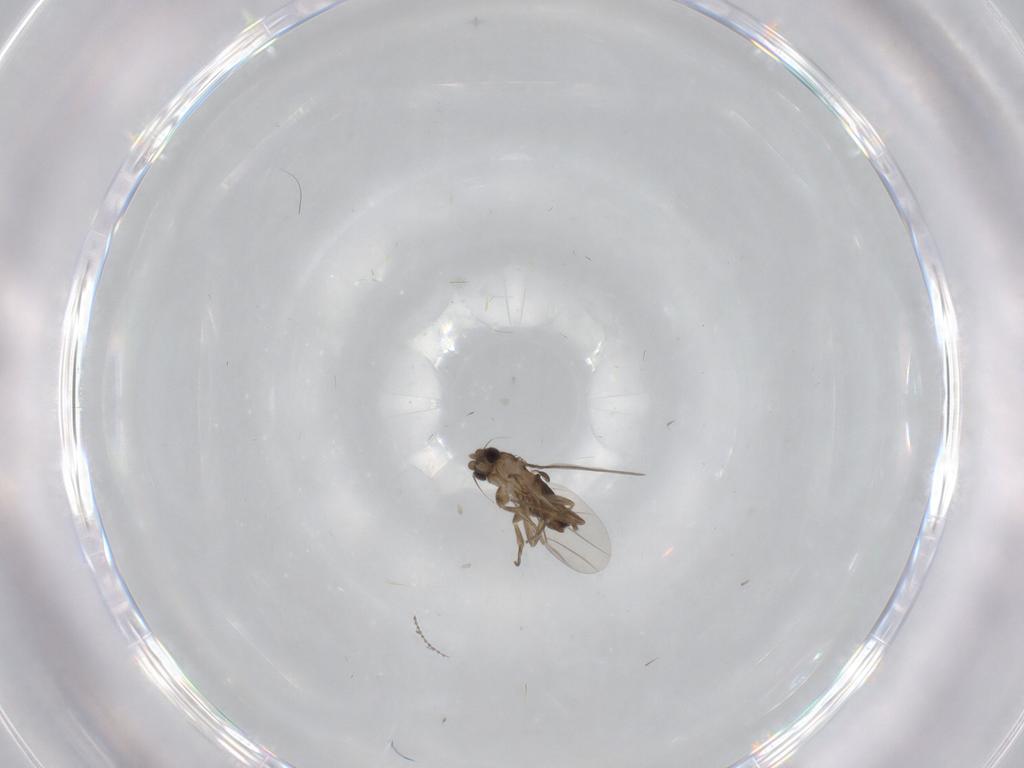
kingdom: Animalia
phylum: Arthropoda
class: Insecta
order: Diptera
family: Phoridae
